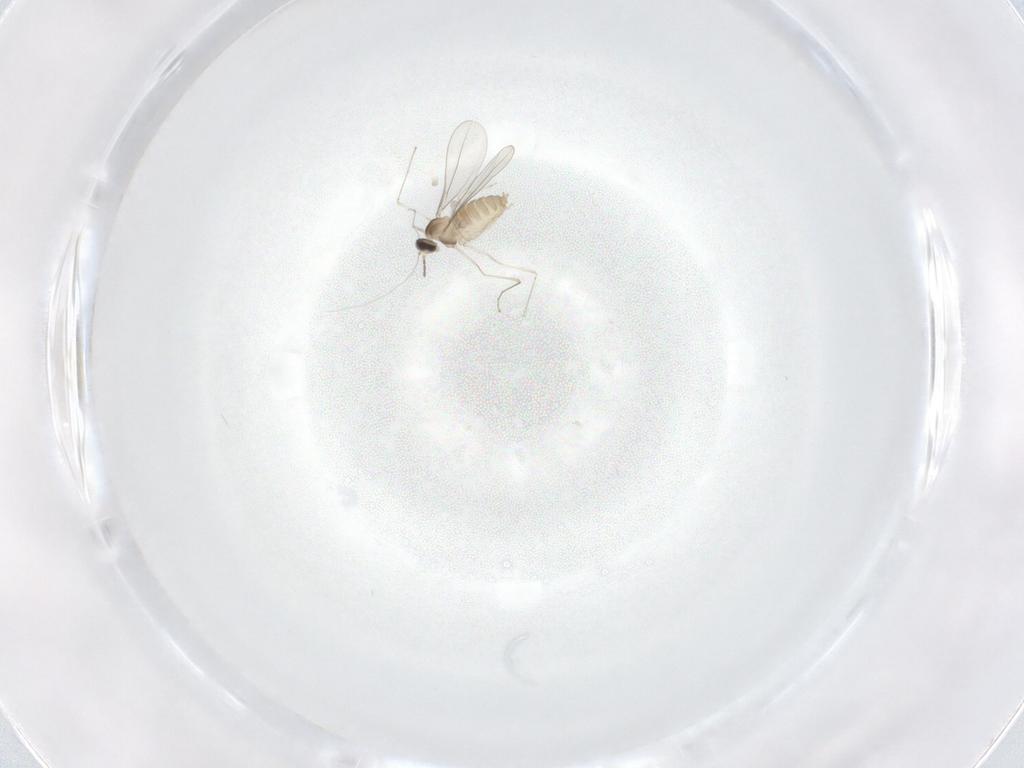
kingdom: Animalia
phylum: Arthropoda
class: Insecta
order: Diptera
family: Cecidomyiidae
